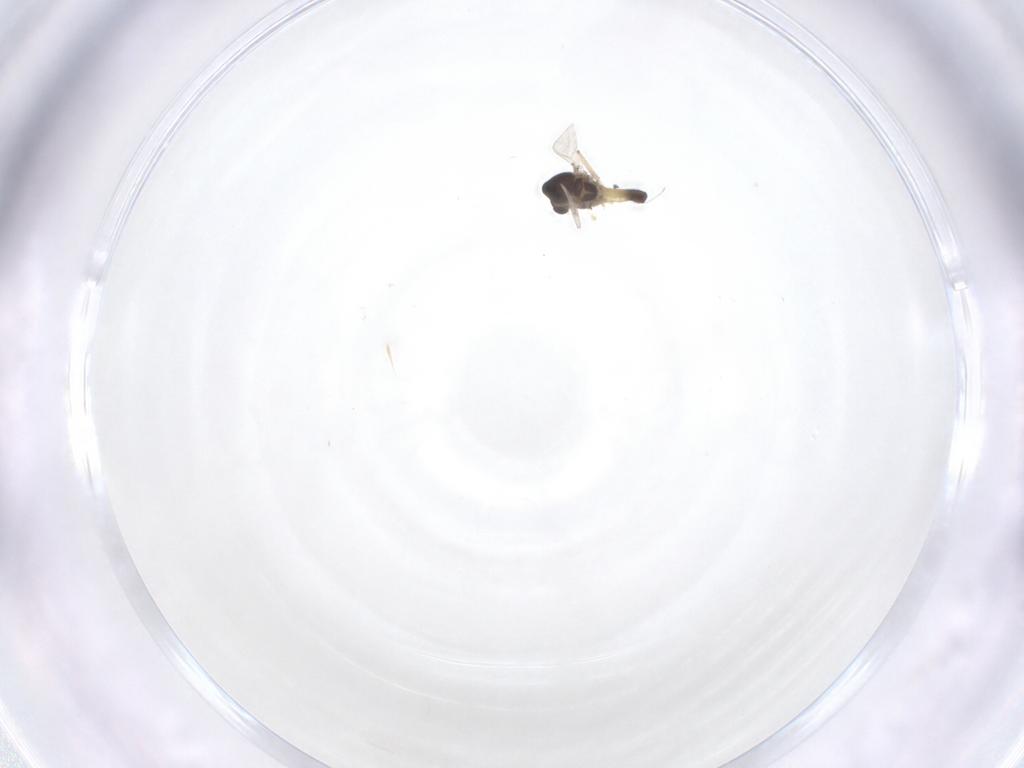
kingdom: Animalia
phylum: Arthropoda
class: Insecta
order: Diptera
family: Chironomidae
